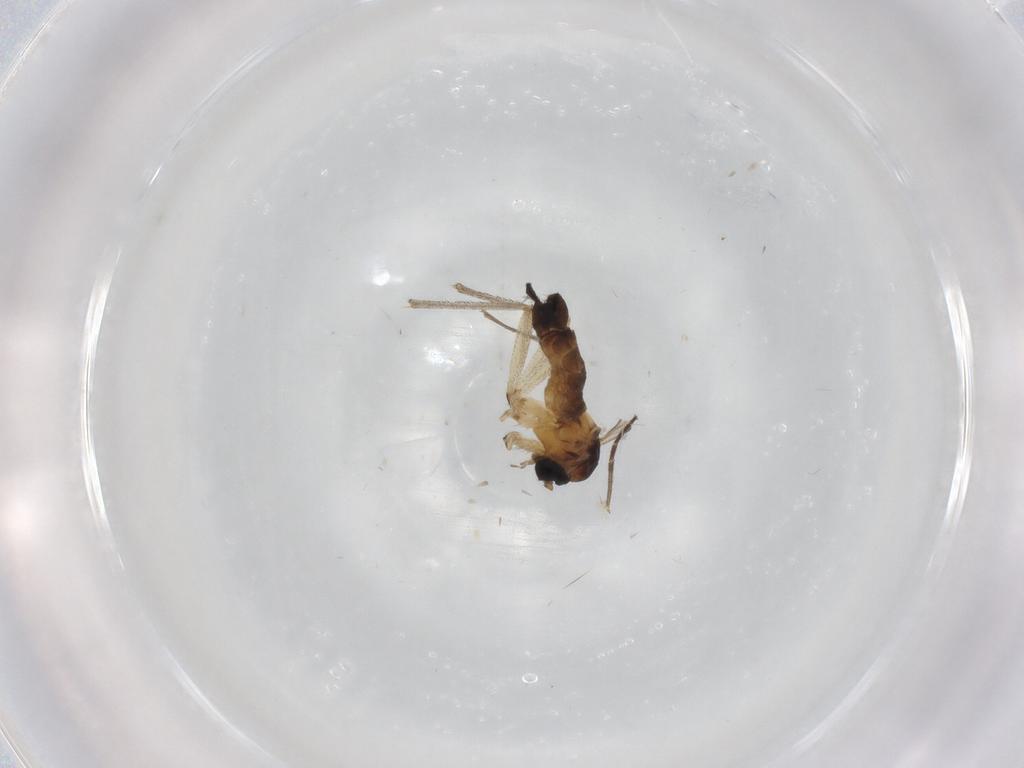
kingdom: Animalia
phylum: Arthropoda
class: Insecta
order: Diptera
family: Sciaridae
